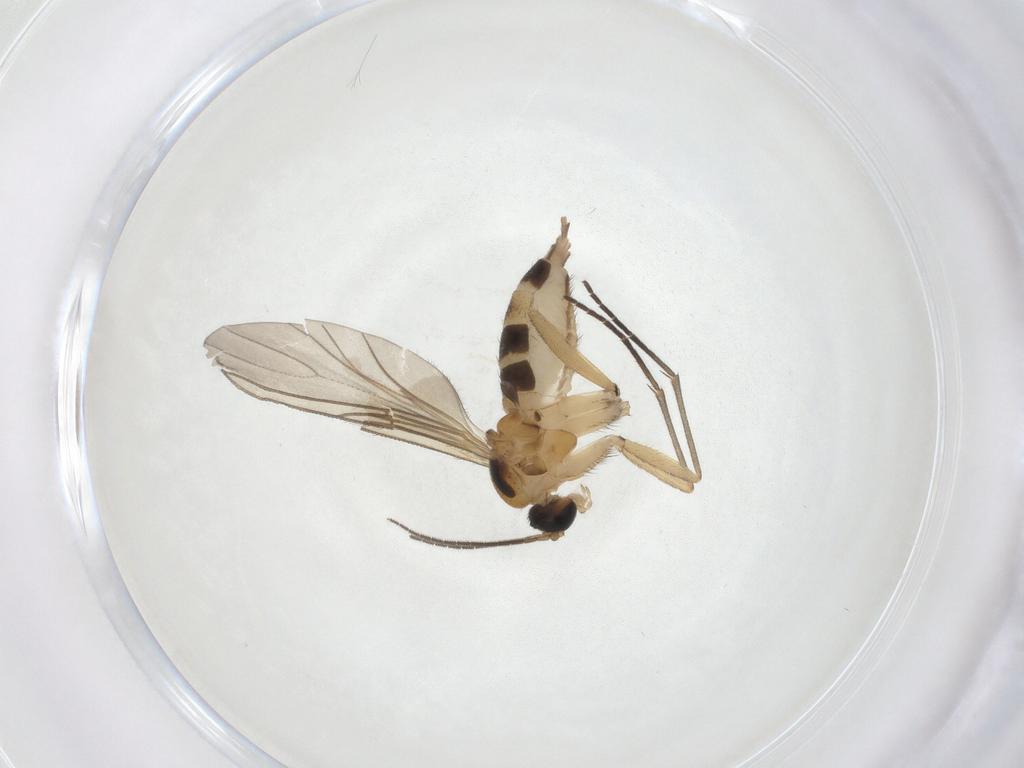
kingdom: Animalia
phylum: Arthropoda
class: Insecta
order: Diptera
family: Sciaridae
